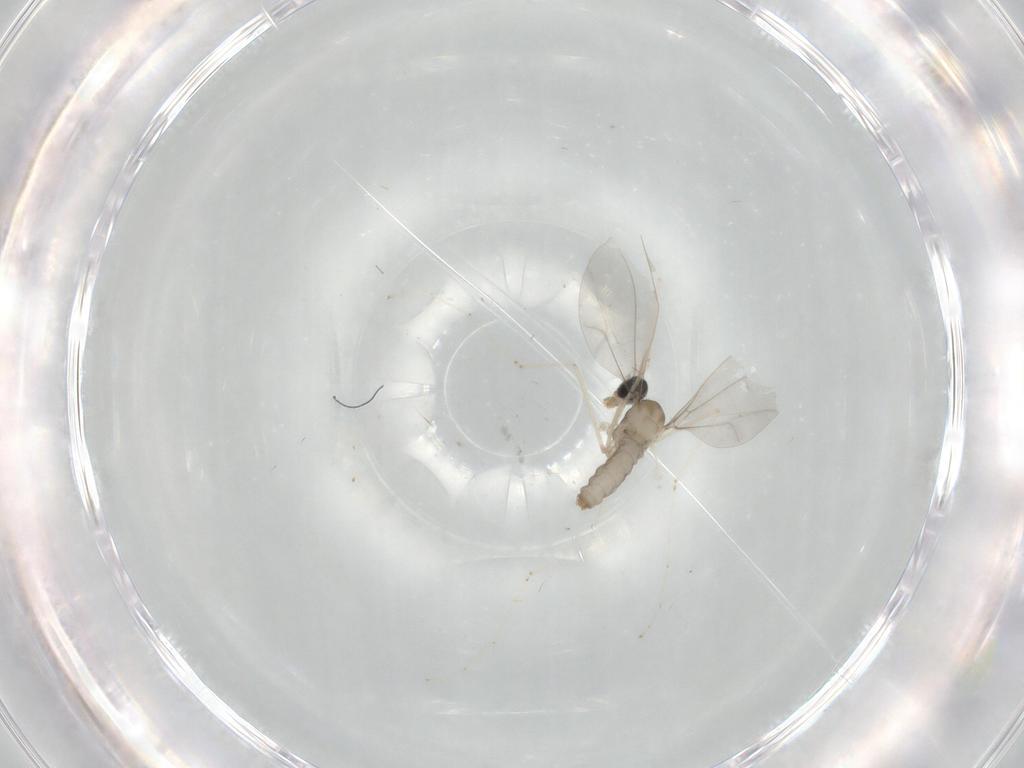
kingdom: Animalia
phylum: Arthropoda
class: Insecta
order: Diptera
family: Cecidomyiidae
